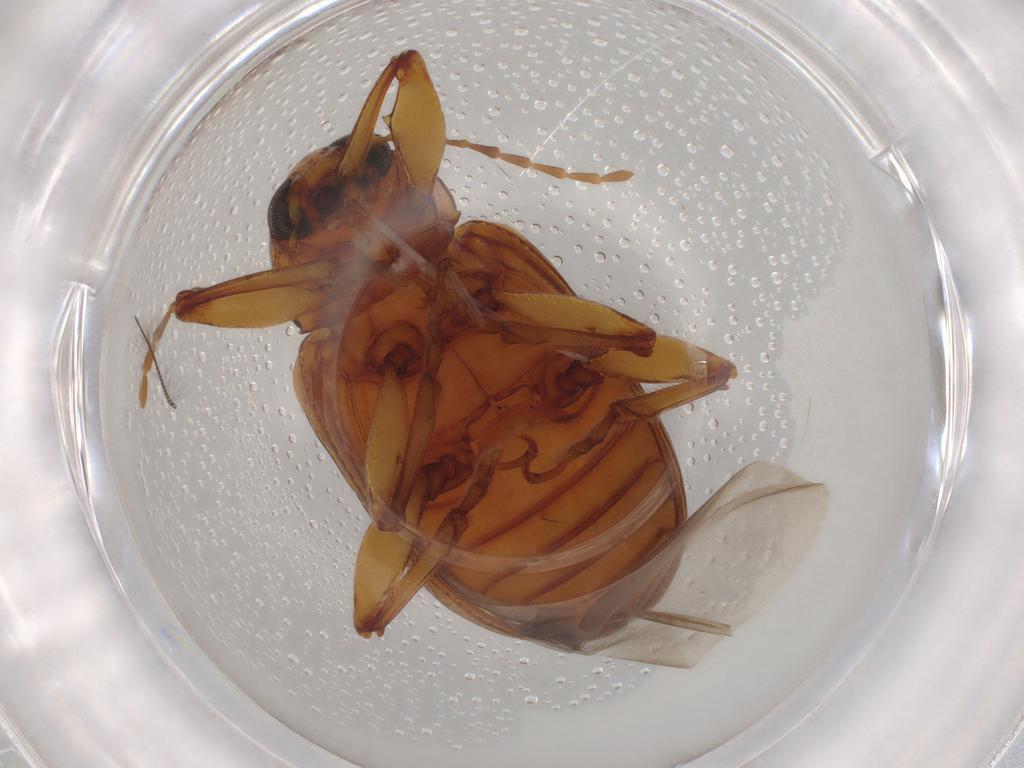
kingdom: Animalia
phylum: Arthropoda
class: Insecta
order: Coleoptera
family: Chrysomelidae
